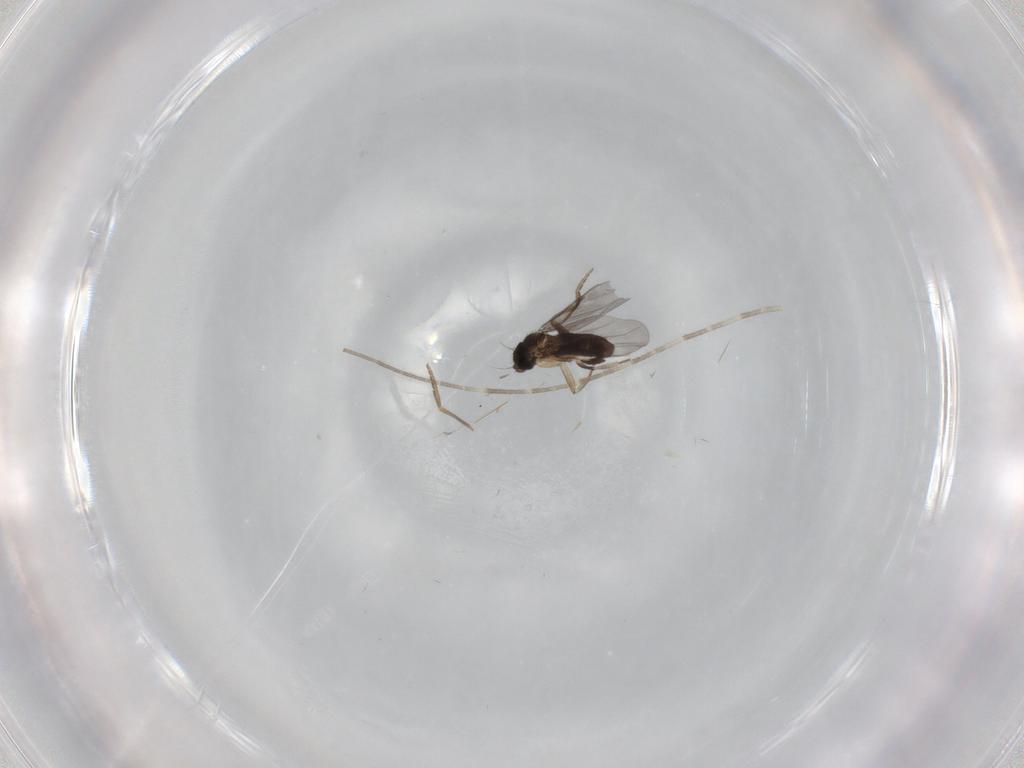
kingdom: Animalia
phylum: Arthropoda
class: Insecta
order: Diptera
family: Phoridae
